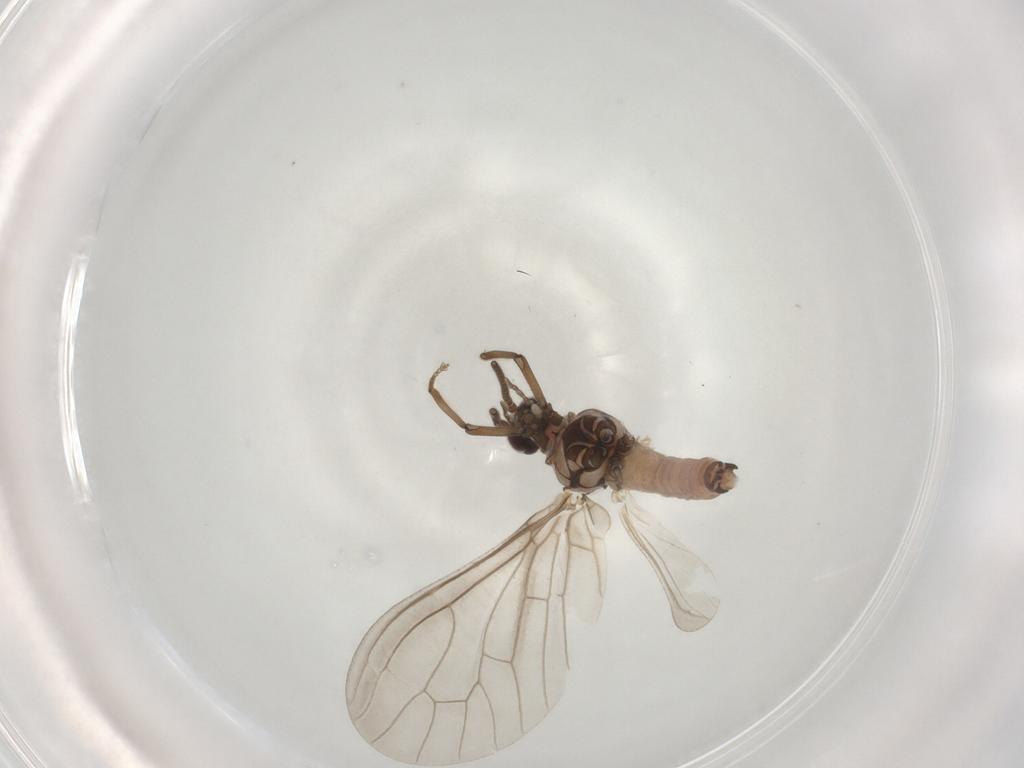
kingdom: Animalia
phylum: Arthropoda
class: Insecta
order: Neuroptera
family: Coniopterygidae
